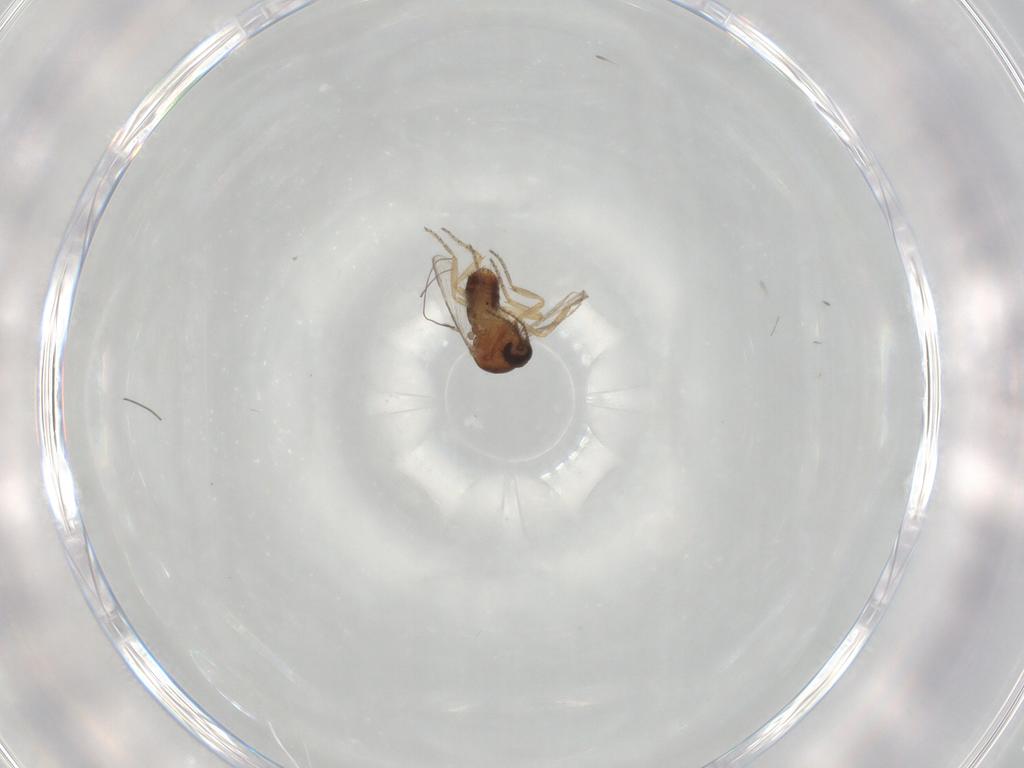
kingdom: Animalia
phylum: Arthropoda
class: Insecta
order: Diptera
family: Ceratopogonidae
